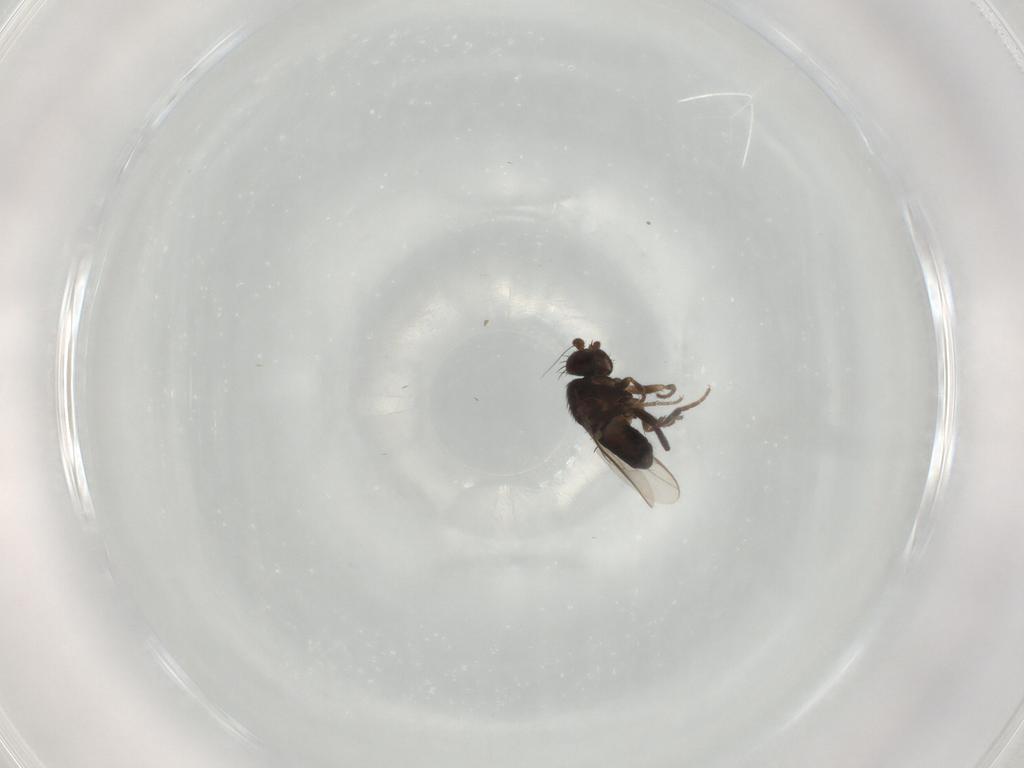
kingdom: Animalia
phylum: Arthropoda
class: Insecta
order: Diptera
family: Sphaeroceridae
